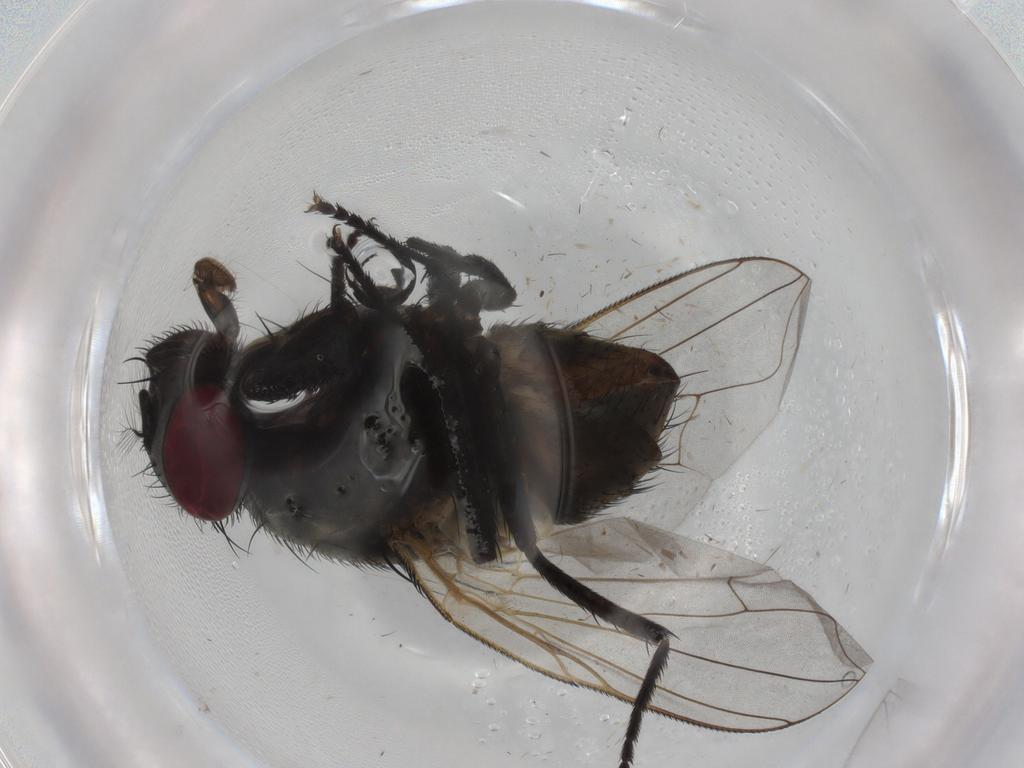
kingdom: Animalia
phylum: Arthropoda
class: Insecta
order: Diptera
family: Muscidae
